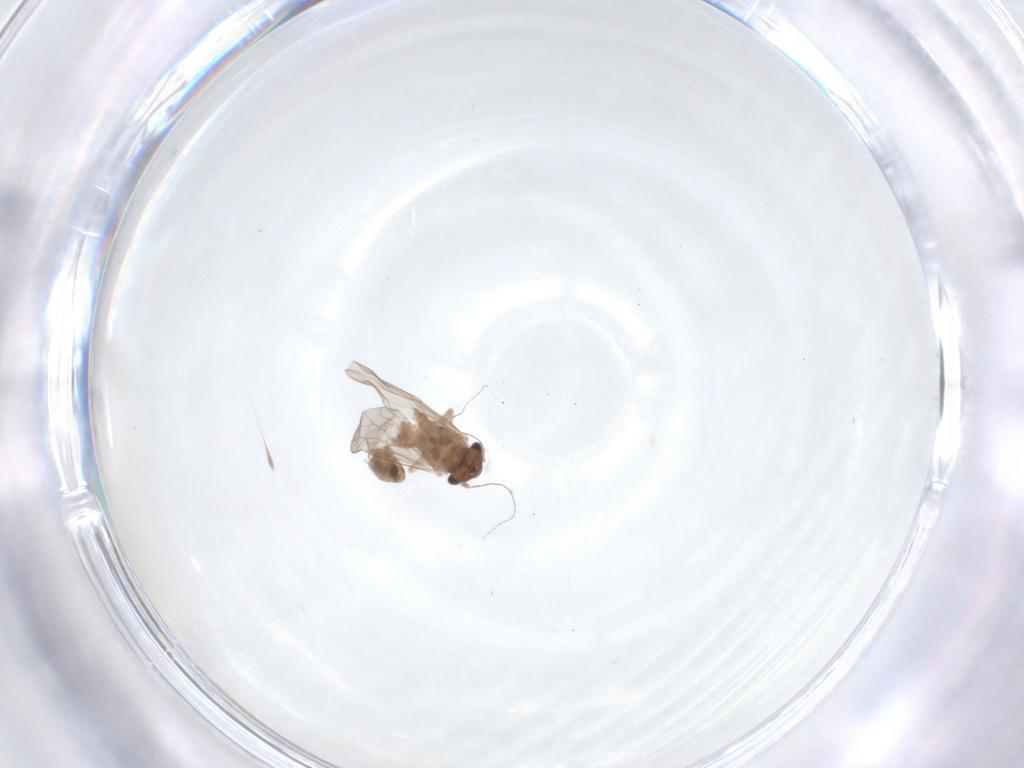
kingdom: Animalia
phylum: Arthropoda
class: Insecta
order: Psocodea
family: Lepidopsocidae
